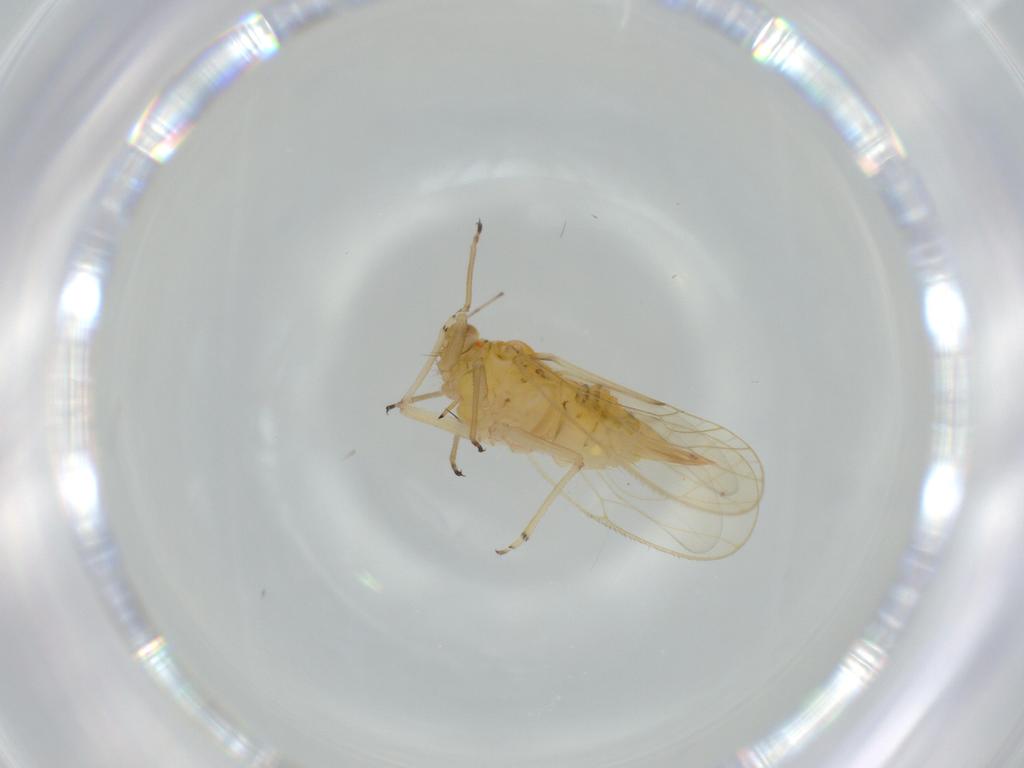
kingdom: Animalia
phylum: Arthropoda
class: Insecta
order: Hemiptera
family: Psyllidae
